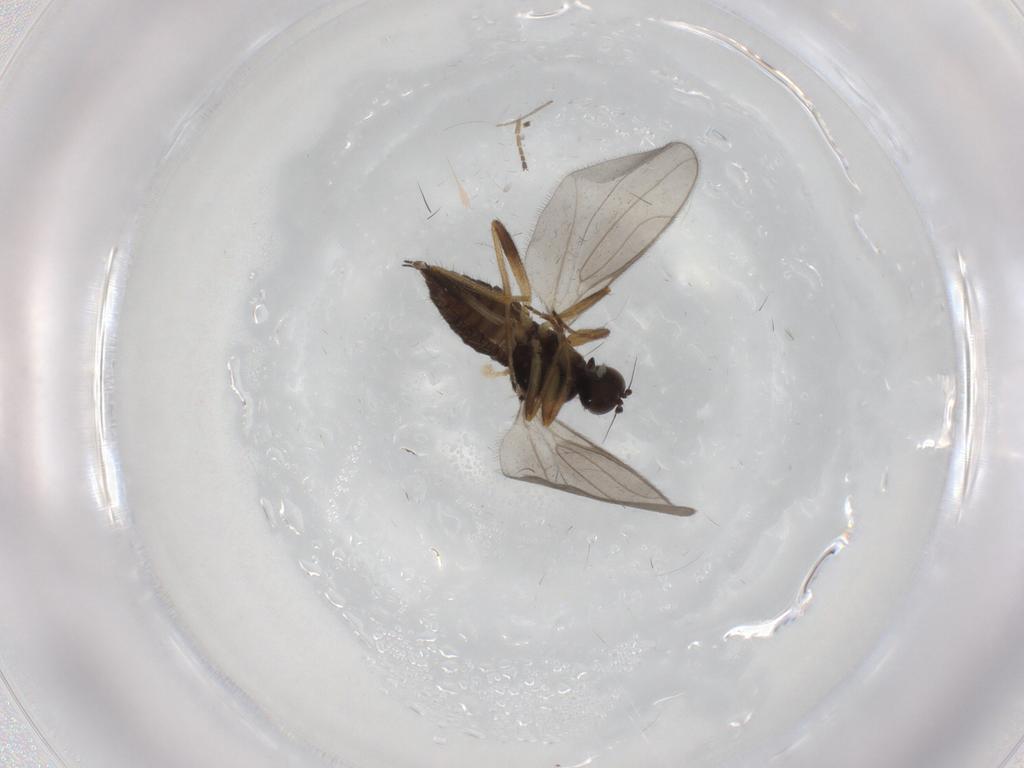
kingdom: Animalia
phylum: Arthropoda
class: Insecta
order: Diptera
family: Hybotidae
